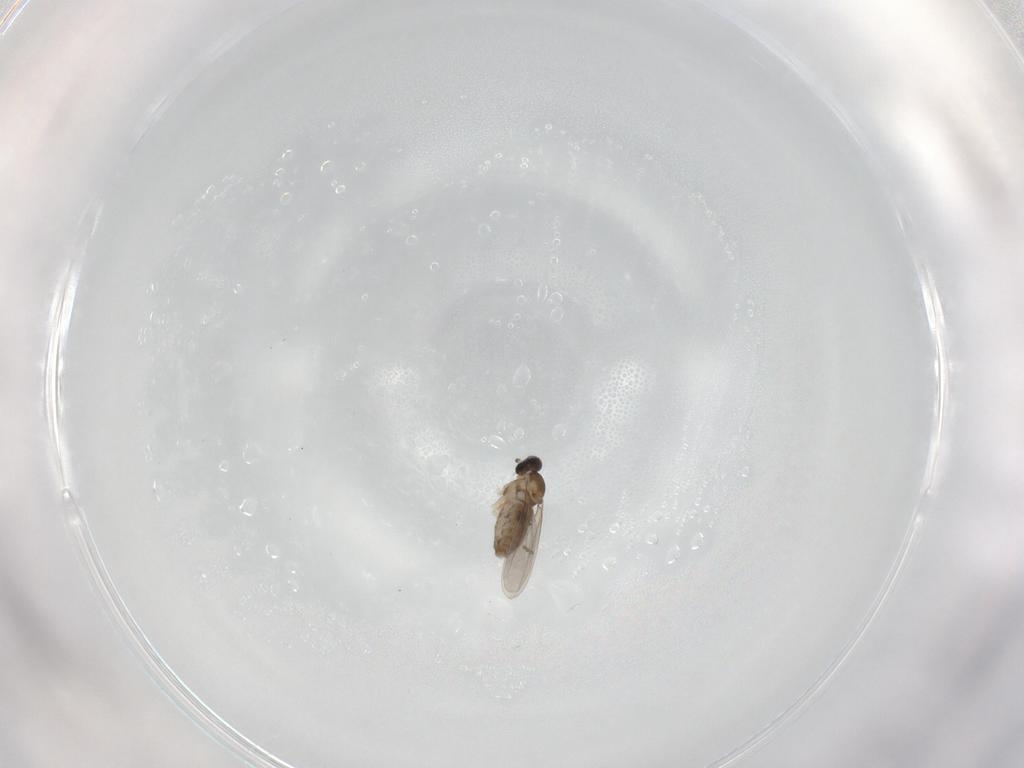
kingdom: Animalia
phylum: Arthropoda
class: Insecta
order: Diptera
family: Cecidomyiidae
